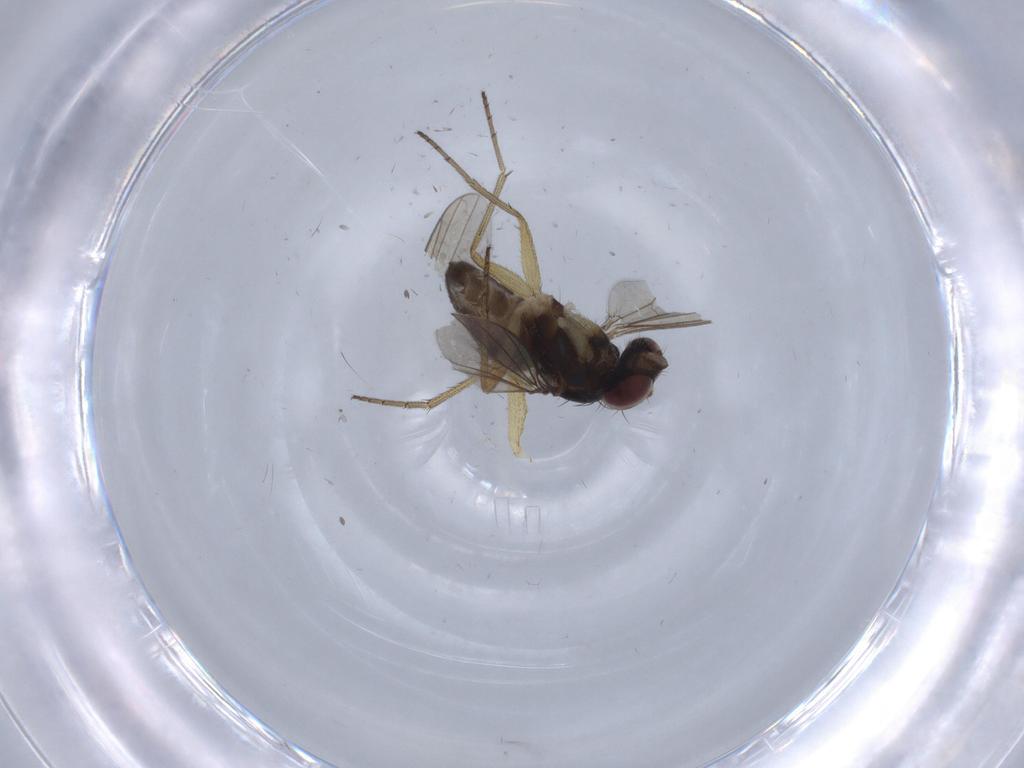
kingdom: Animalia
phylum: Arthropoda
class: Insecta
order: Diptera
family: Dolichopodidae
